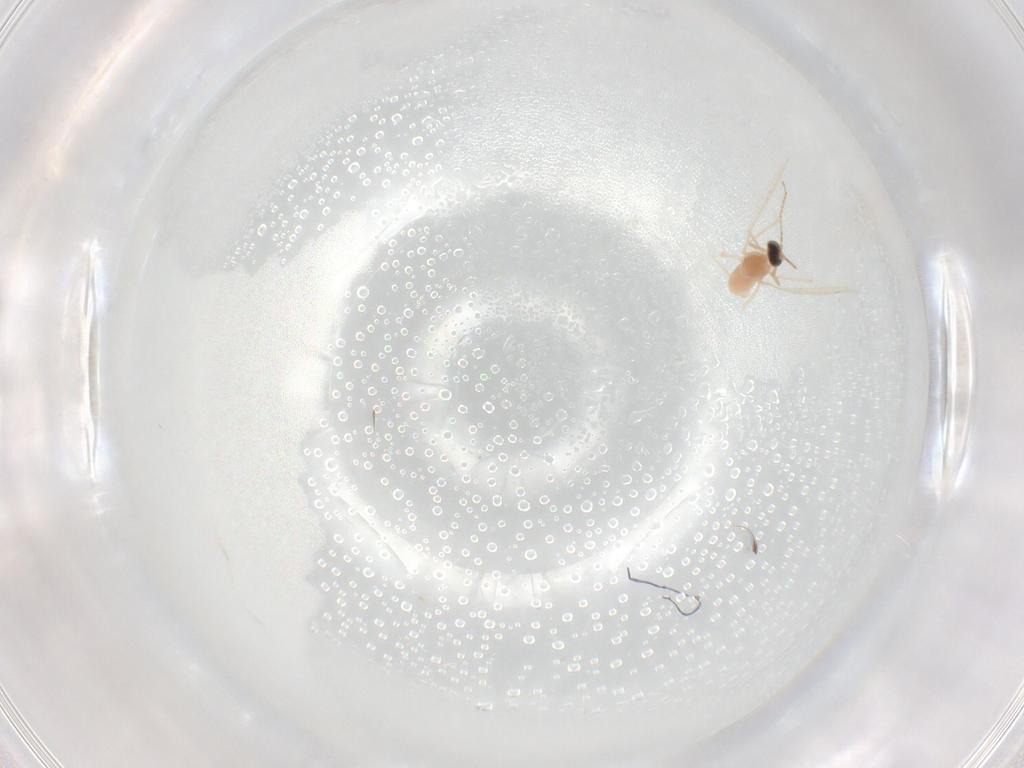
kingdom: Animalia
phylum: Arthropoda
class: Insecta
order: Diptera
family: Cecidomyiidae
